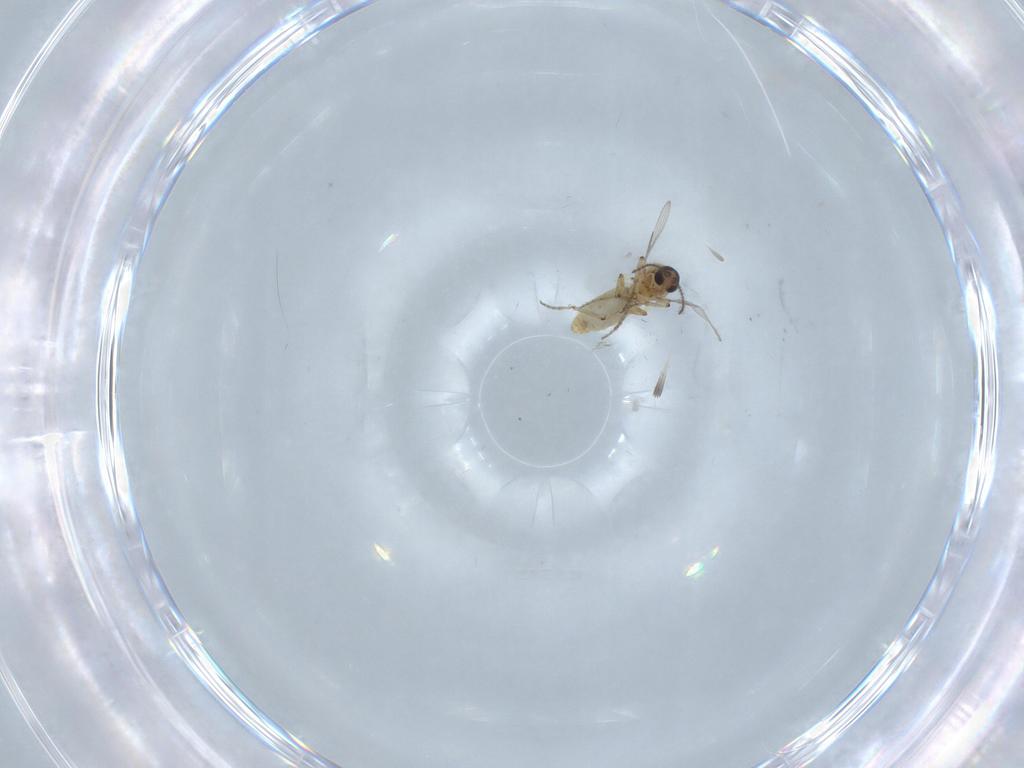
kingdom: Animalia
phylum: Arthropoda
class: Insecta
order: Diptera
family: Ceratopogonidae
